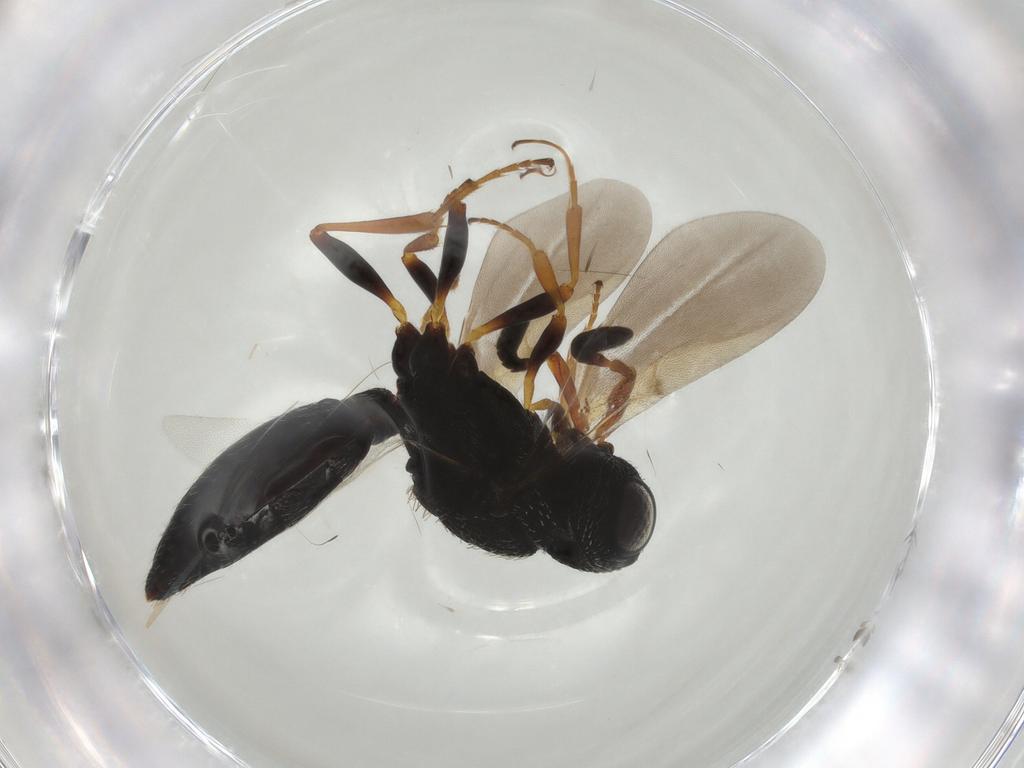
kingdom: Animalia
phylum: Arthropoda
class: Insecta
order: Hymenoptera
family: Scelionidae
